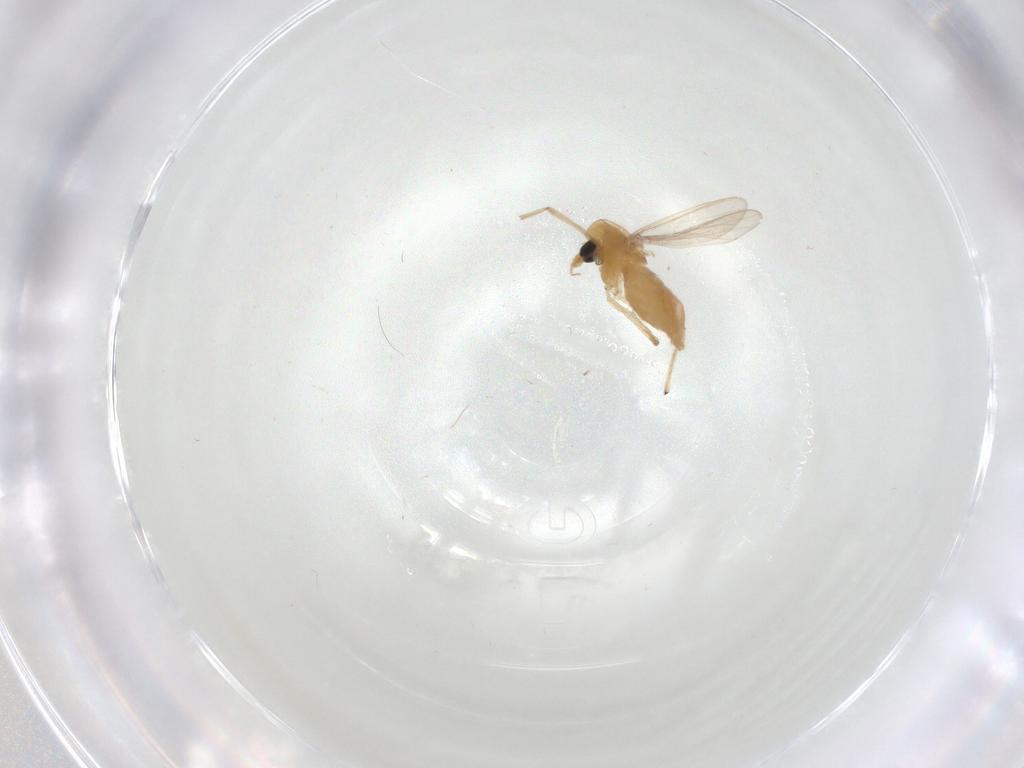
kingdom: Animalia
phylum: Arthropoda
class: Insecta
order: Diptera
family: Chironomidae
